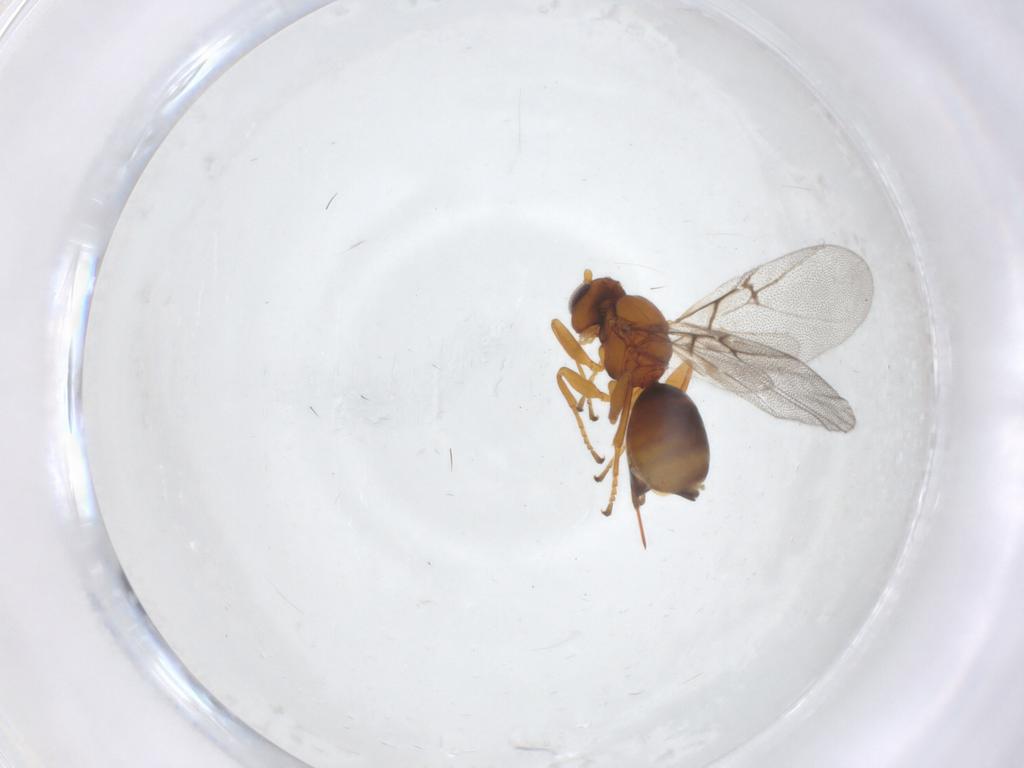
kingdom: Animalia
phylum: Arthropoda
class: Insecta
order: Hymenoptera
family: Cynipidae
